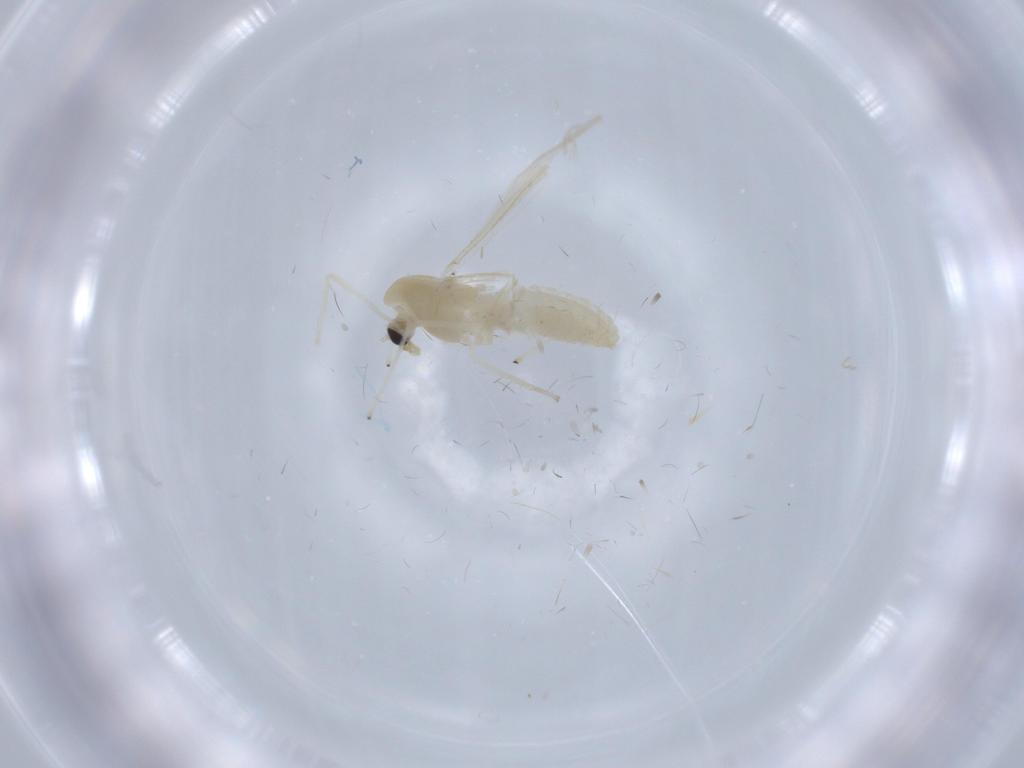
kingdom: Animalia
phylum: Arthropoda
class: Insecta
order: Diptera
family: Chironomidae
